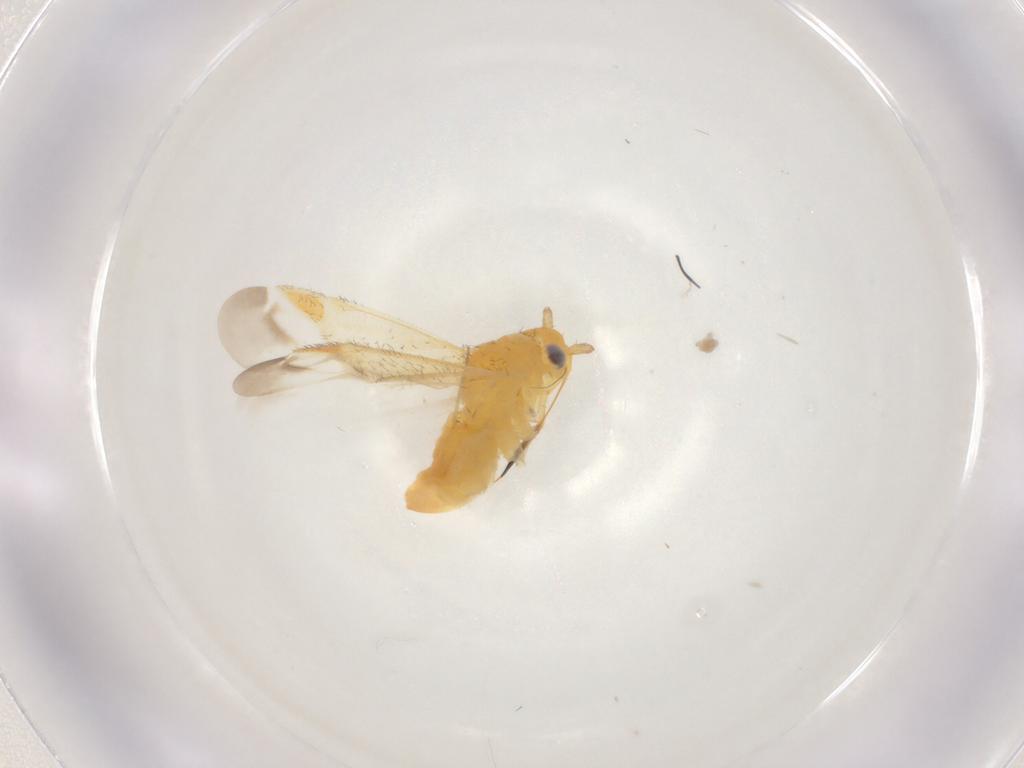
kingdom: Animalia
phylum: Arthropoda
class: Insecta
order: Hemiptera
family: Miridae
